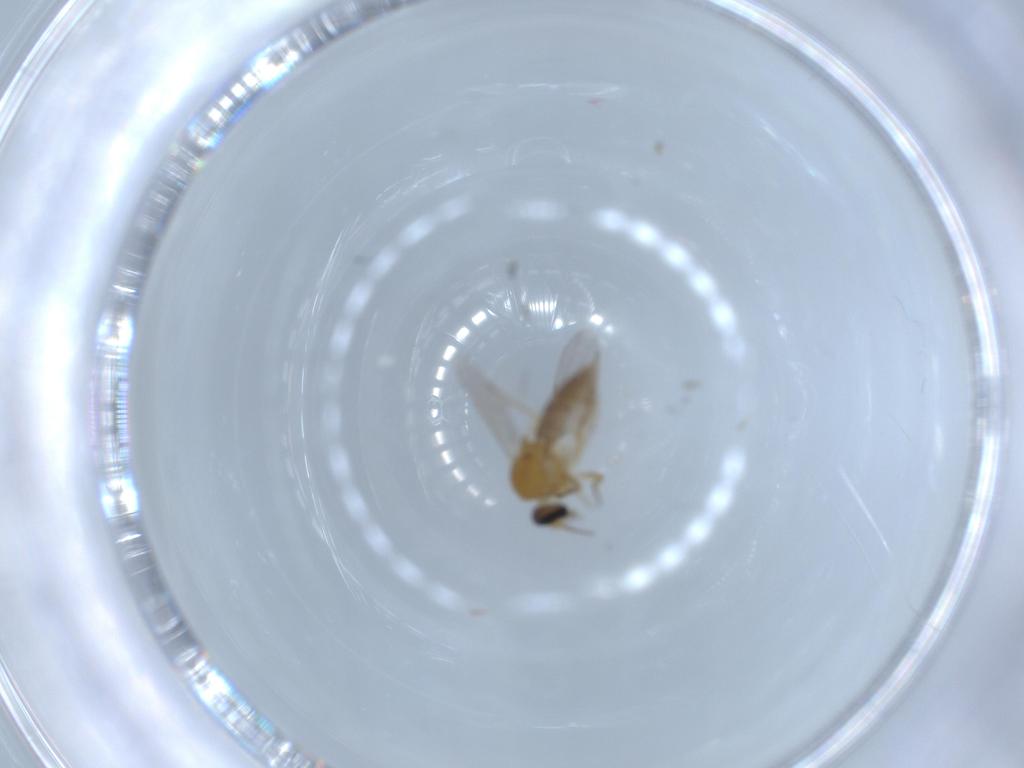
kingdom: Animalia
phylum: Arthropoda
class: Insecta
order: Diptera
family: Ceratopogonidae
